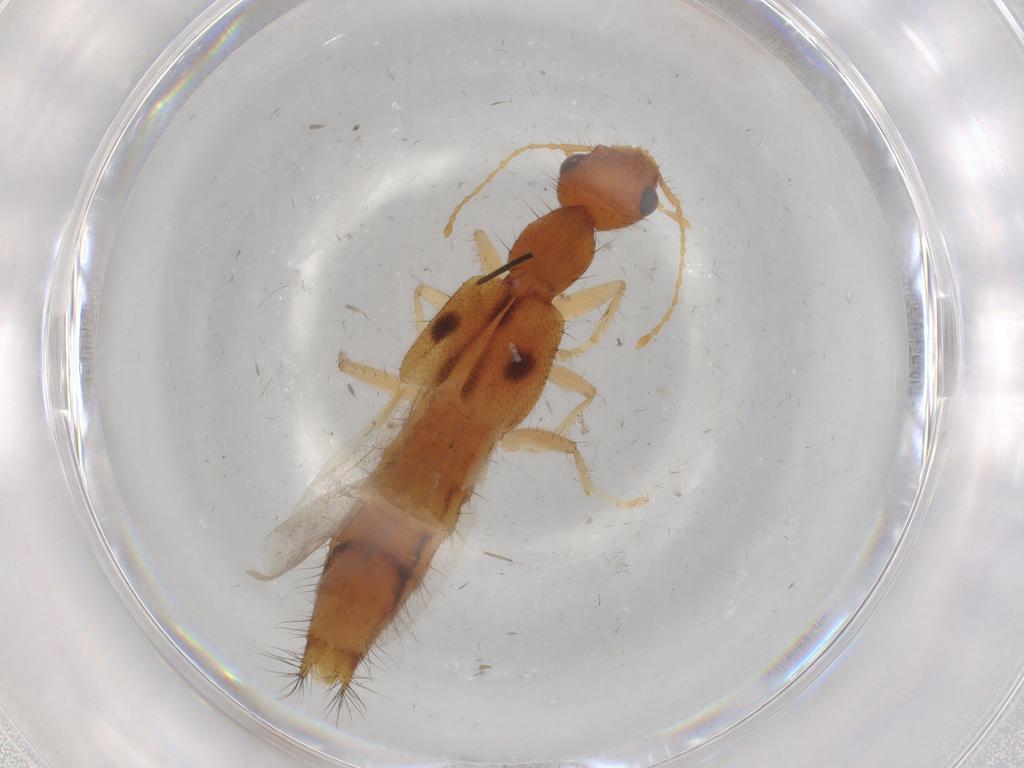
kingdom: Animalia
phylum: Arthropoda
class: Insecta
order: Coleoptera
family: Staphylinidae
